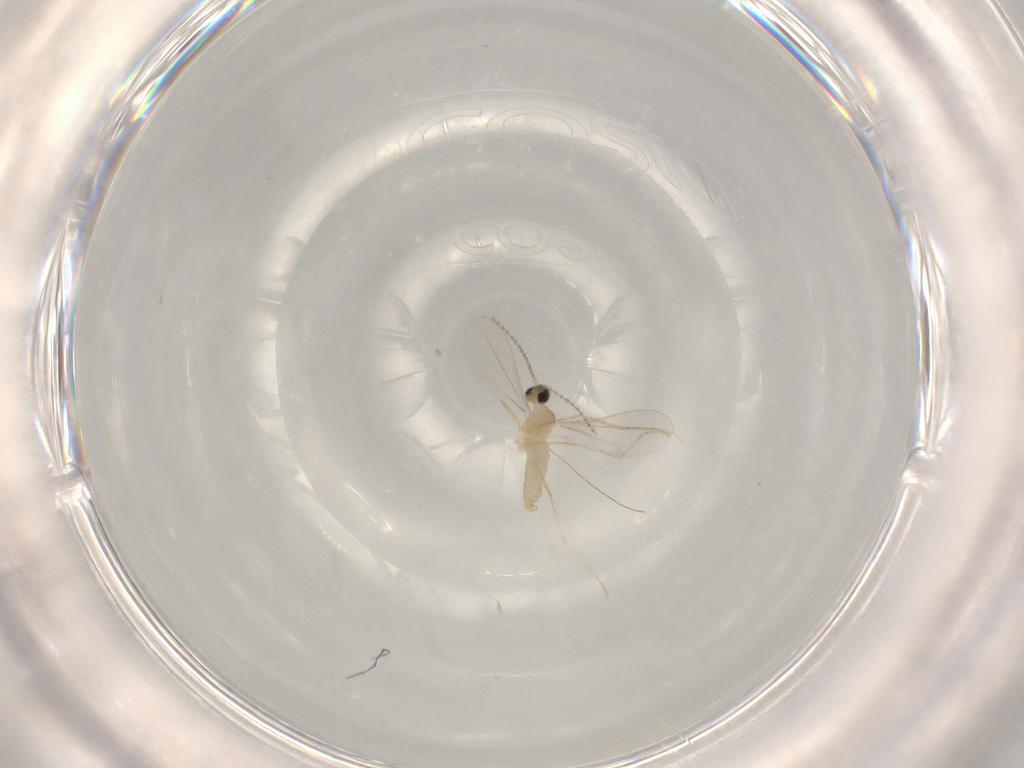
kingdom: Animalia
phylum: Arthropoda
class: Insecta
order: Diptera
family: Cecidomyiidae
